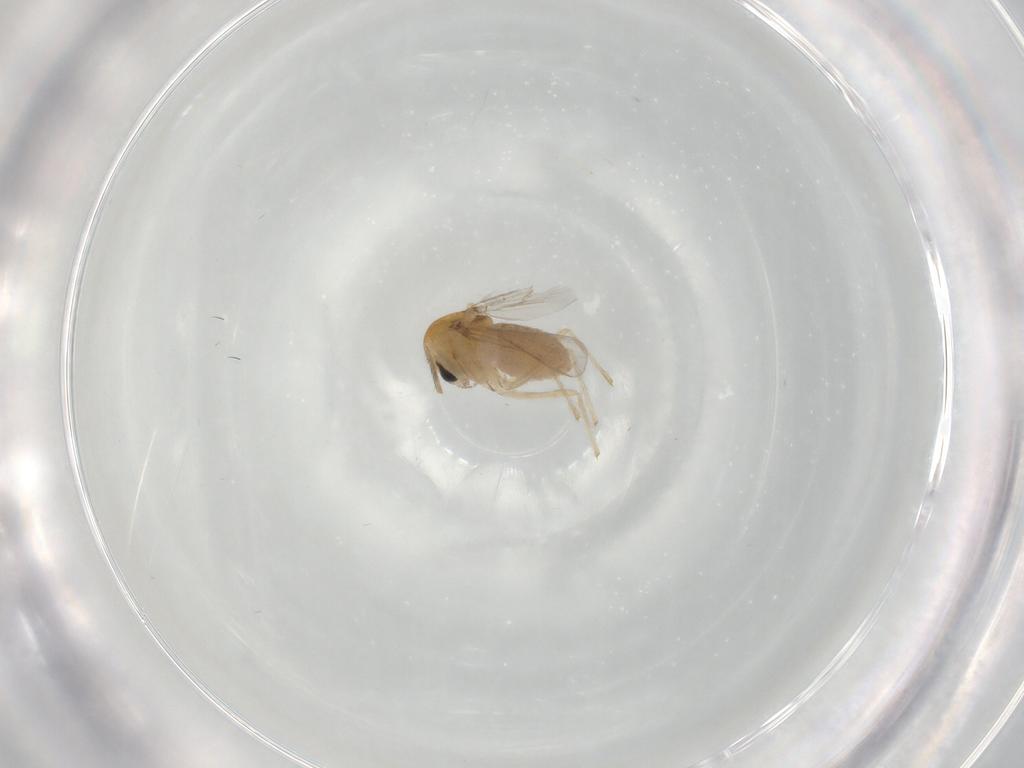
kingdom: Animalia
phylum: Arthropoda
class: Insecta
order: Diptera
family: Chironomidae
